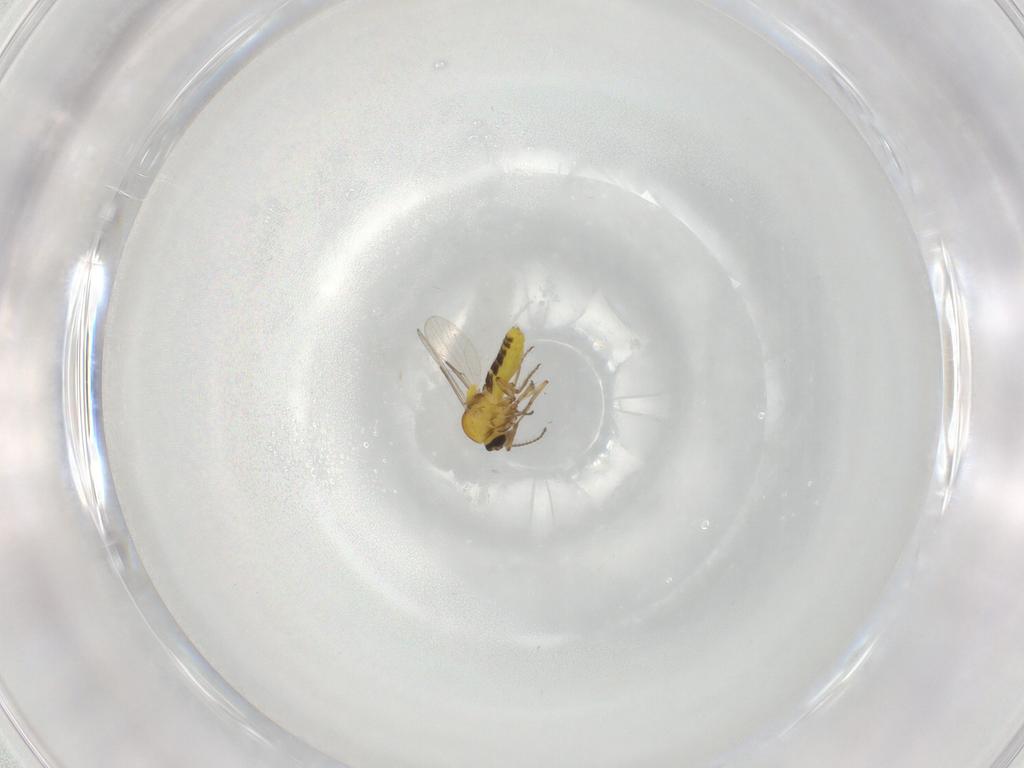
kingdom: Animalia
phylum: Arthropoda
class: Insecta
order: Diptera
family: Ceratopogonidae
